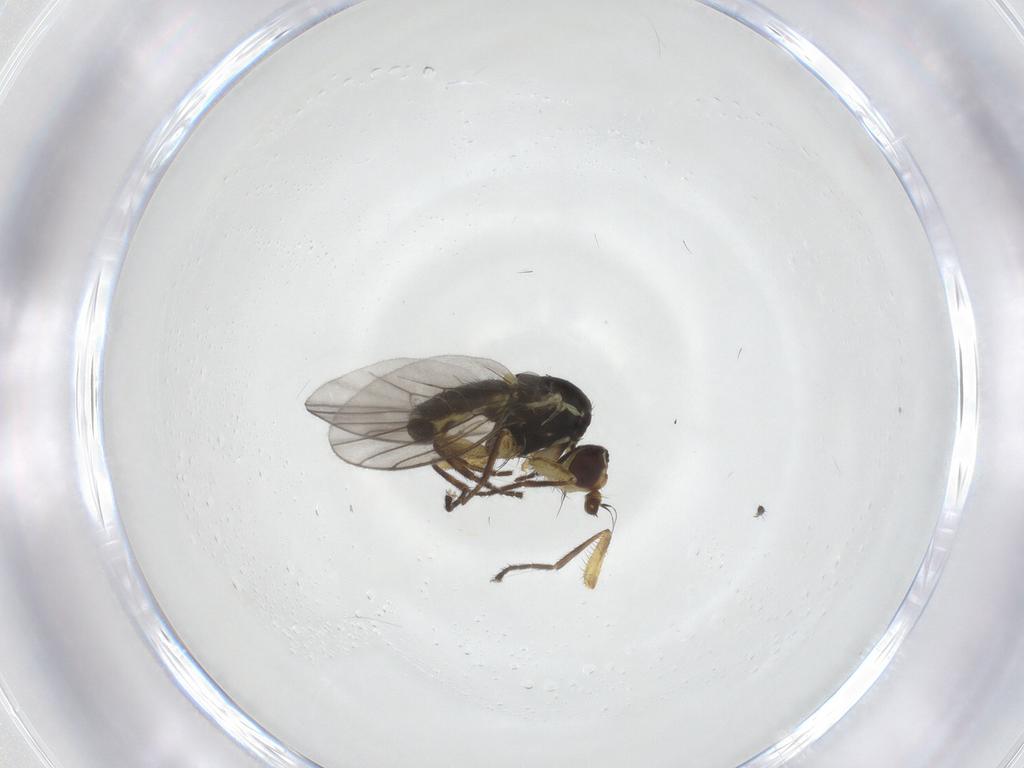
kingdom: Animalia
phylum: Arthropoda
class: Insecta
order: Diptera
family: Agromyzidae
